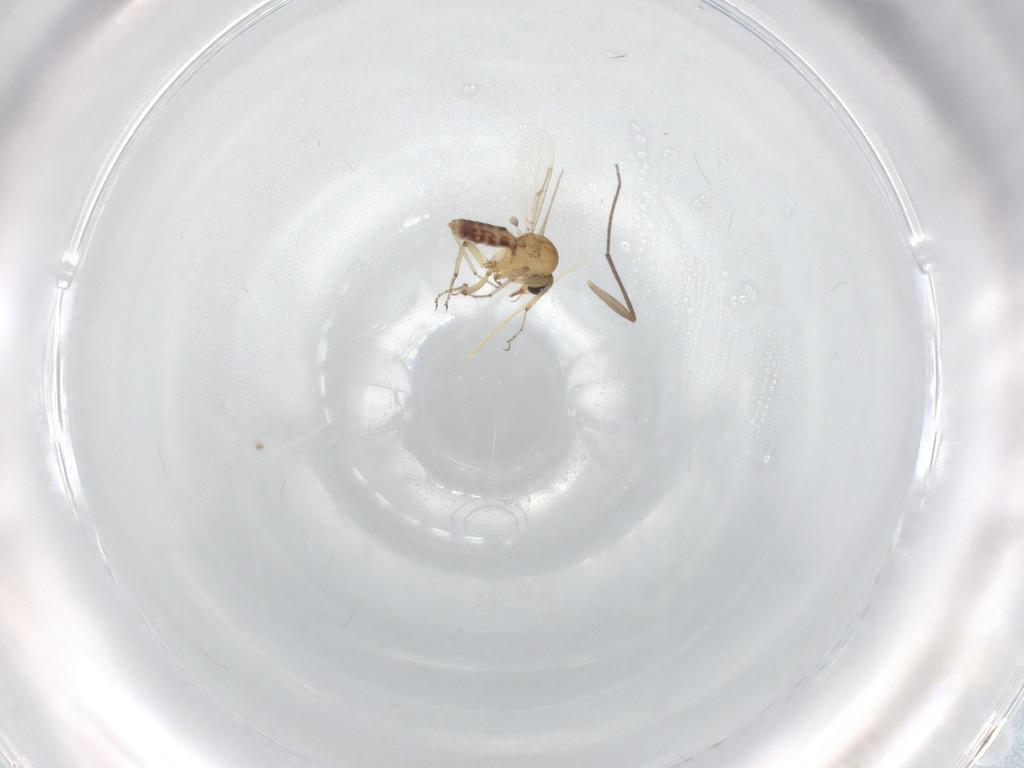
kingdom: Animalia
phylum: Arthropoda
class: Insecta
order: Diptera
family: Ceratopogonidae
